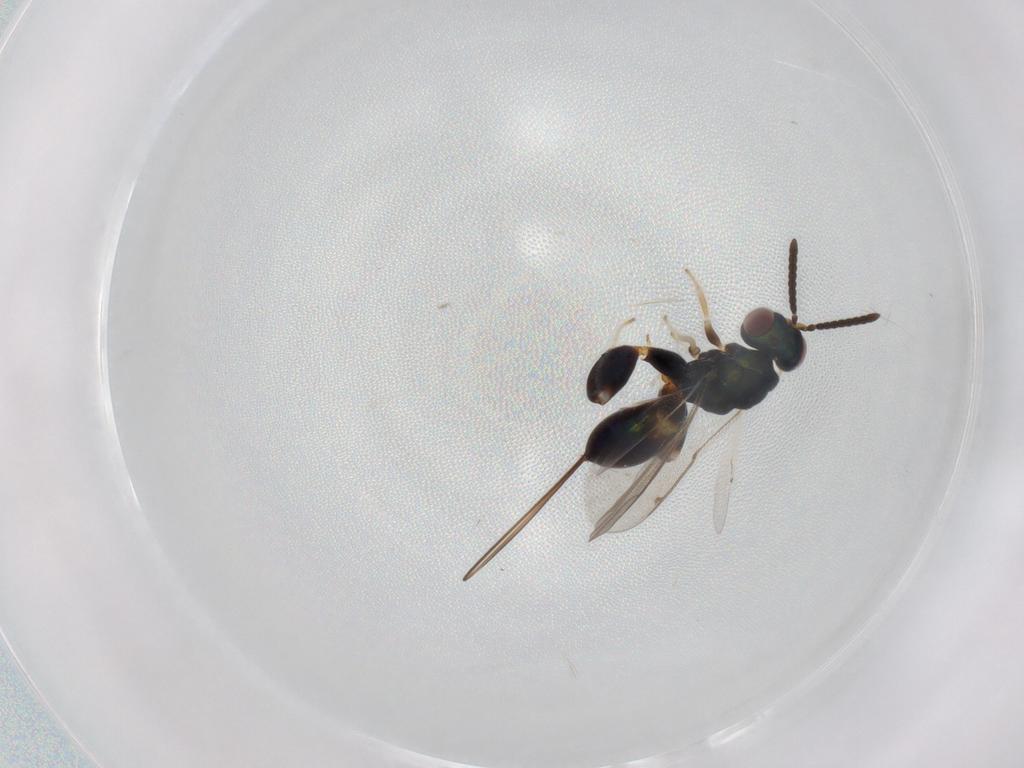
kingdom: Animalia
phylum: Arthropoda
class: Insecta
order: Hymenoptera
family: Torymidae
